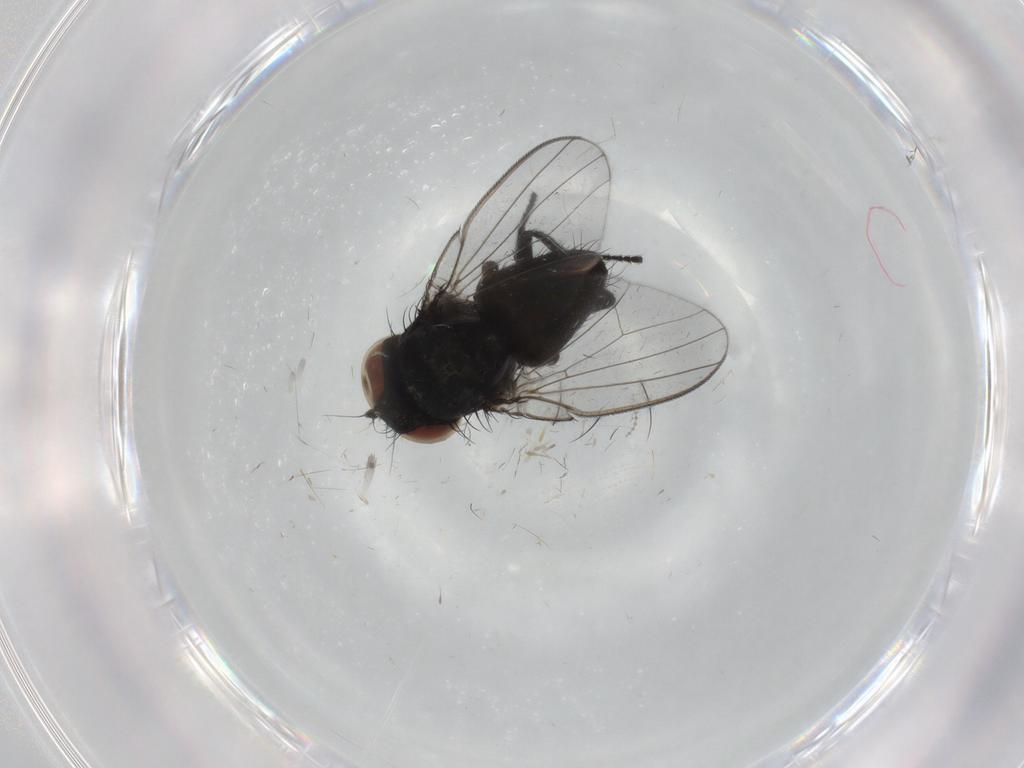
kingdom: Animalia
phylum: Arthropoda
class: Insecta
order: Diptera
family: Milichiidae
